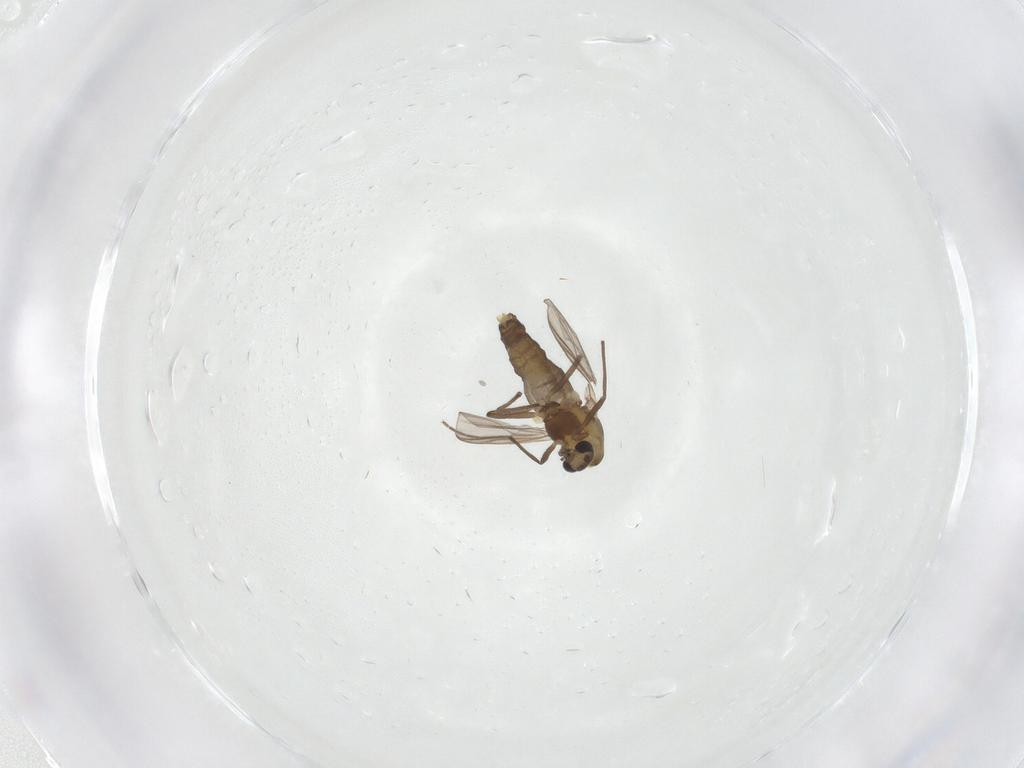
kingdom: Animalia
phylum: Arthropoda
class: Insecta
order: Diptera
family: Chironomidae
